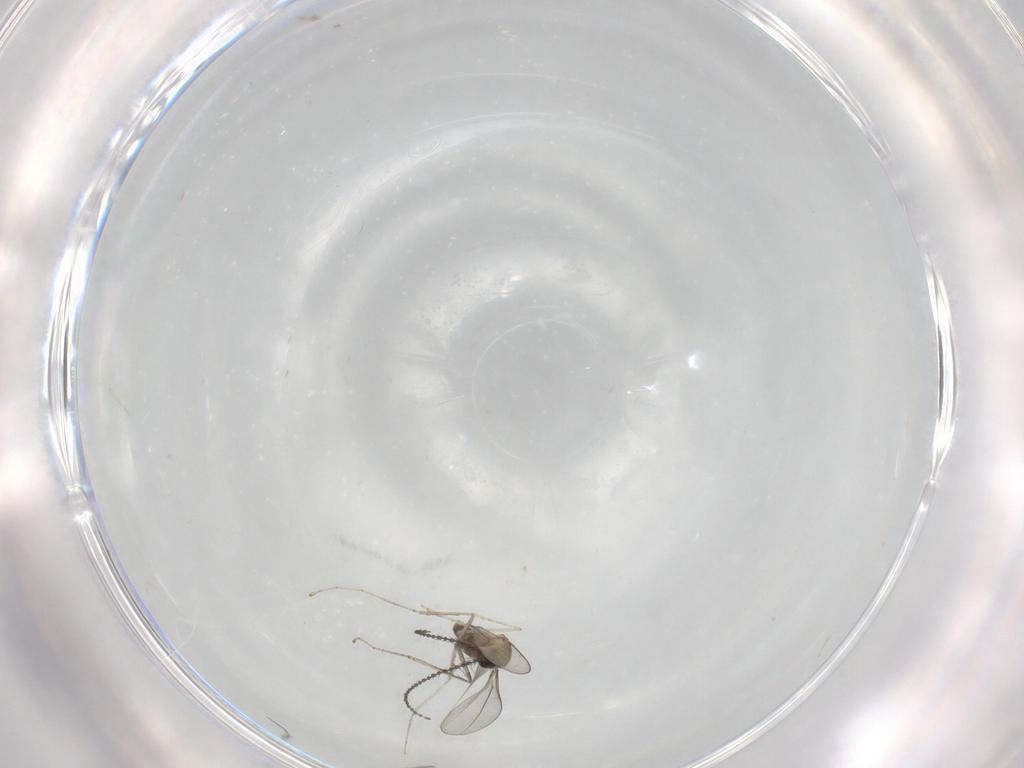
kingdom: Animalia
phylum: Arthropoda
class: Insecta
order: Diptera
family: Cecidomyiidae
